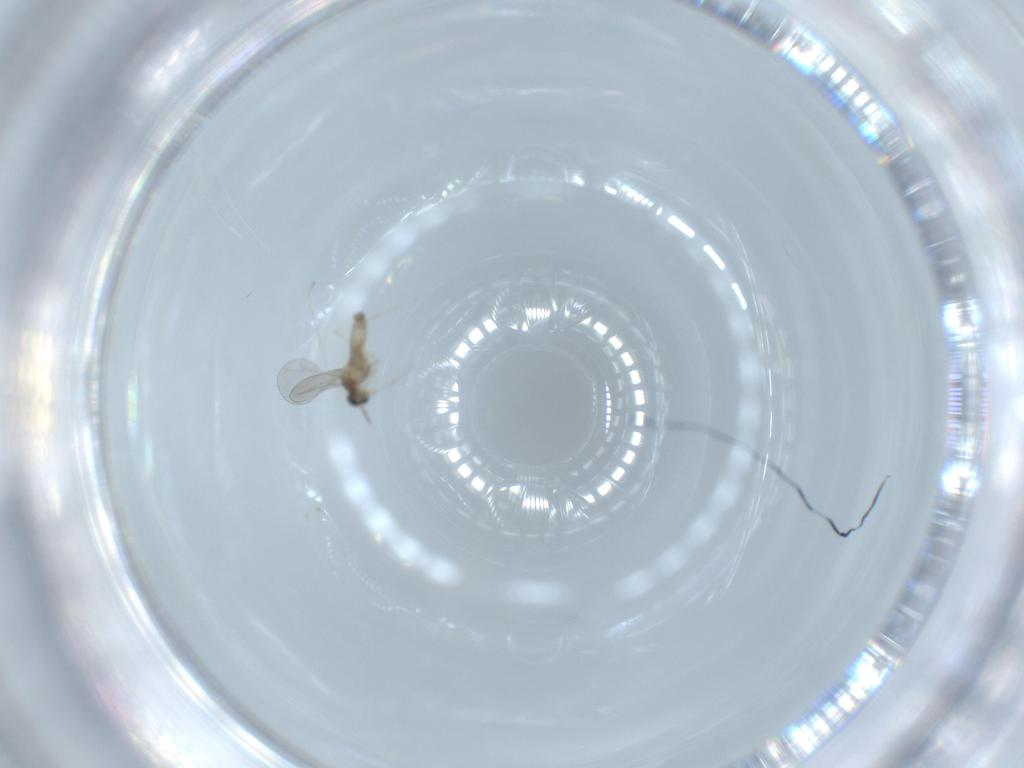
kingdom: Animalia
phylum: Arthropoda
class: Insecta
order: Diptera
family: Cecidomyiidae
